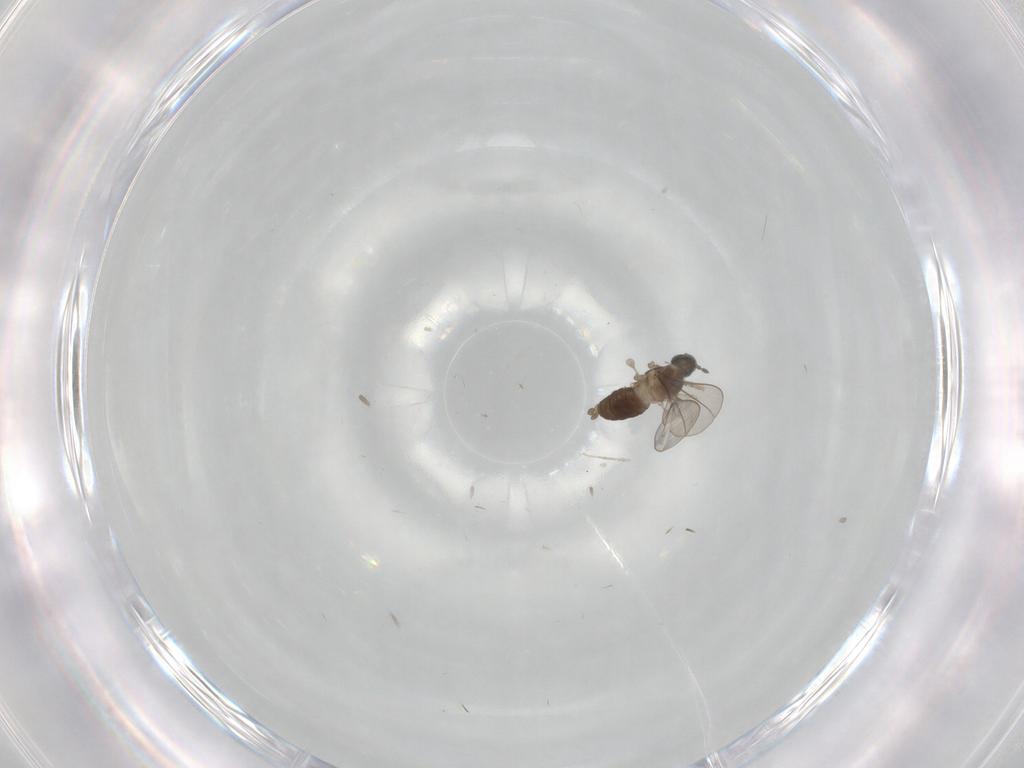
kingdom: Animalia
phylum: Arthropoda
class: Insecta
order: Diptera
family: Cecidomyiidae
